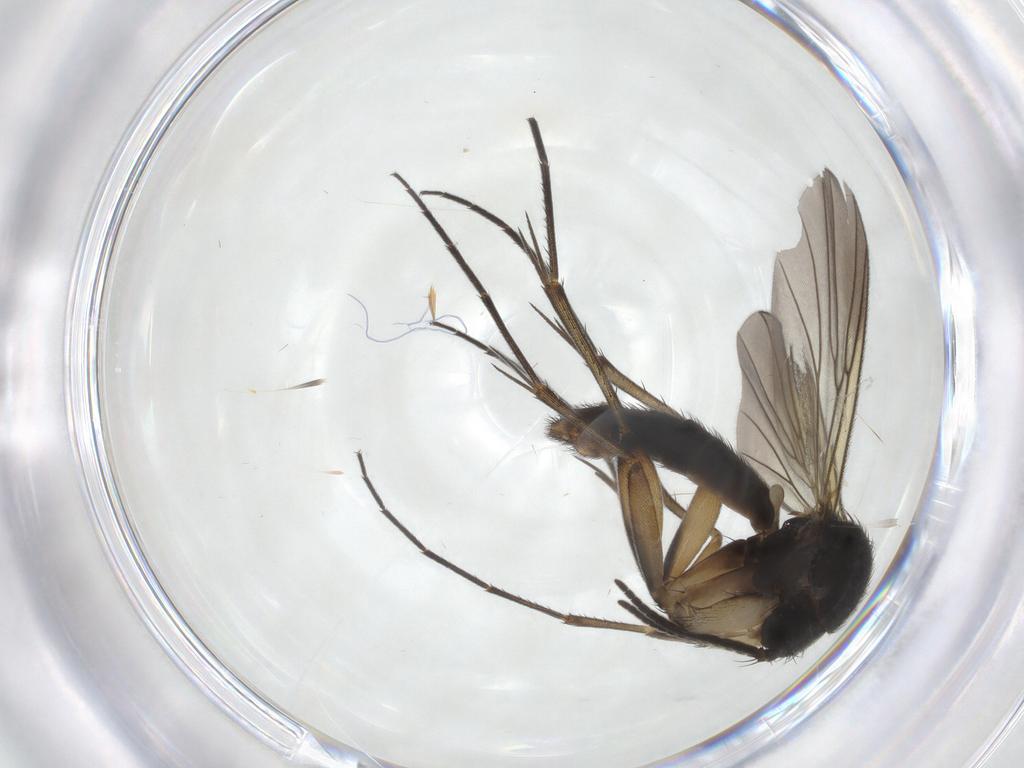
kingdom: Animalia
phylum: Arthropoda
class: Insecta
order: Diptera
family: Mycetophilidae
